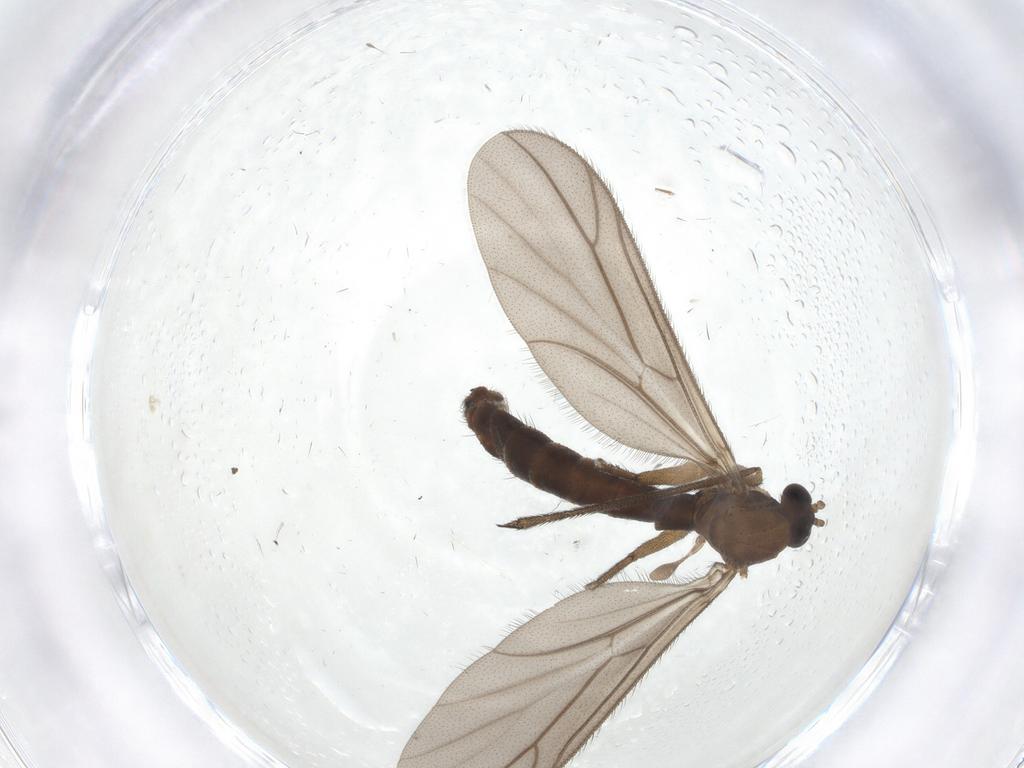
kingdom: Animalia
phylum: Arthropoda
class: Insecta
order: Diptera
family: Ditomyiidae
